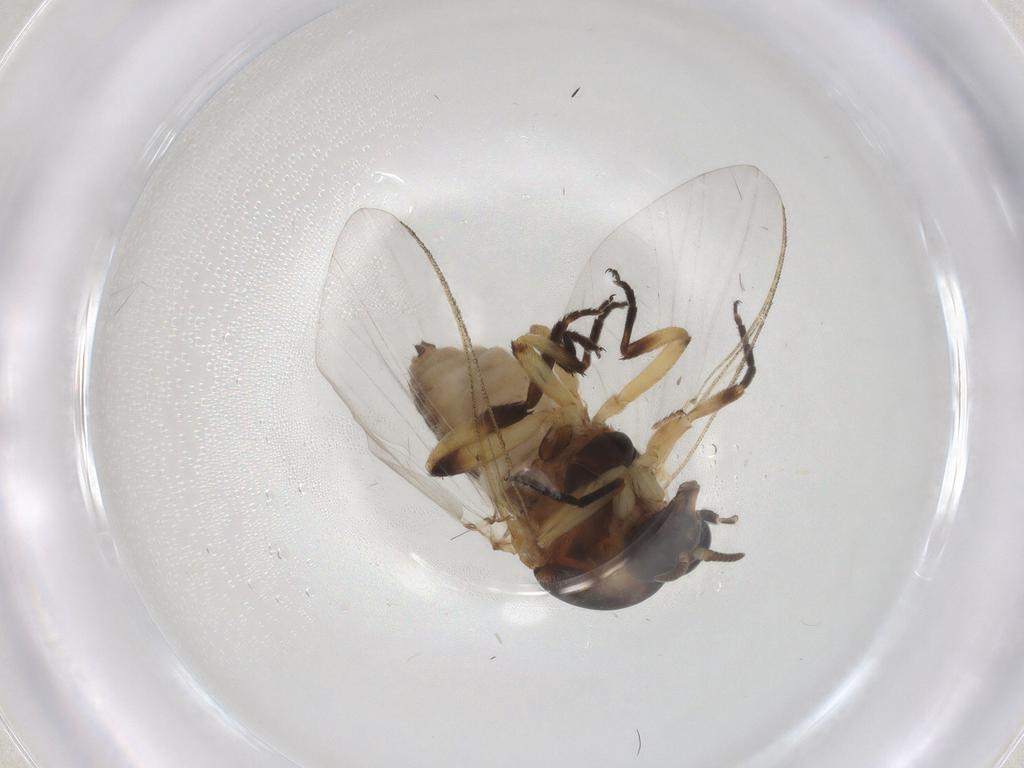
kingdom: Animalia
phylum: Arthropoda
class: Insecta
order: Diptera
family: Simuliidae
